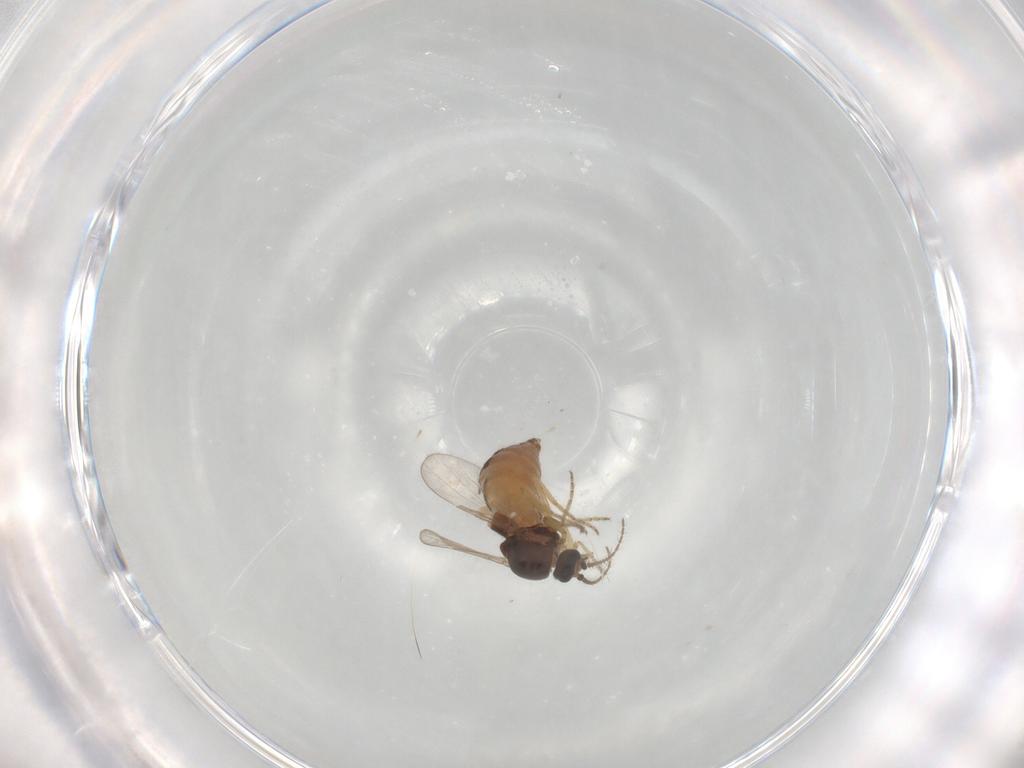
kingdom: Animalia
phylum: Arthropoda
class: Insecta
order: Diptera
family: Ceratopogonidae
